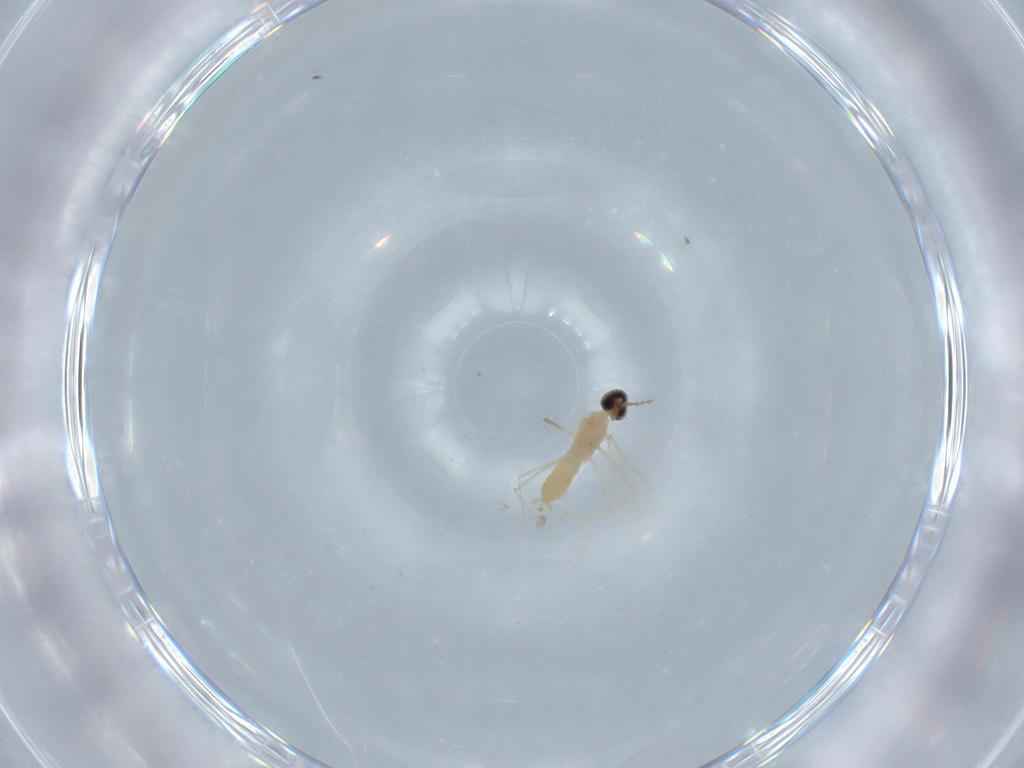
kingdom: Animalia
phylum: Arthropoda
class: Insecta
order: Diptera
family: Cecidomyiidae
